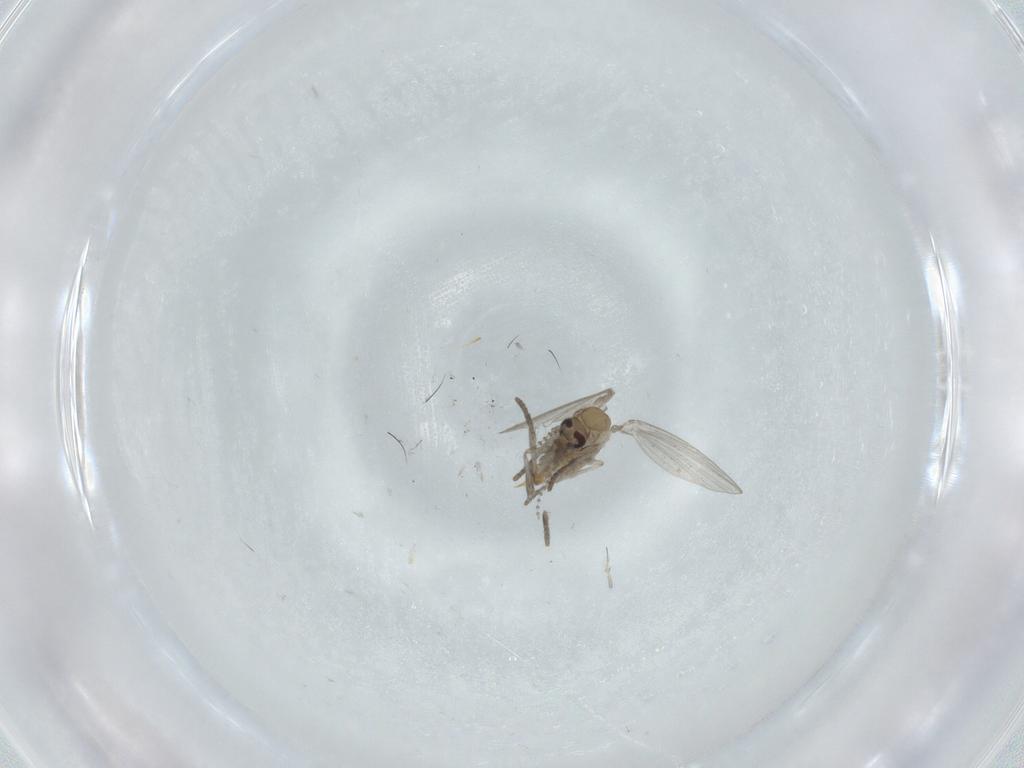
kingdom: Animalia
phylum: Arthropoda
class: Insecta
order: Diptera
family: Psychodidae
